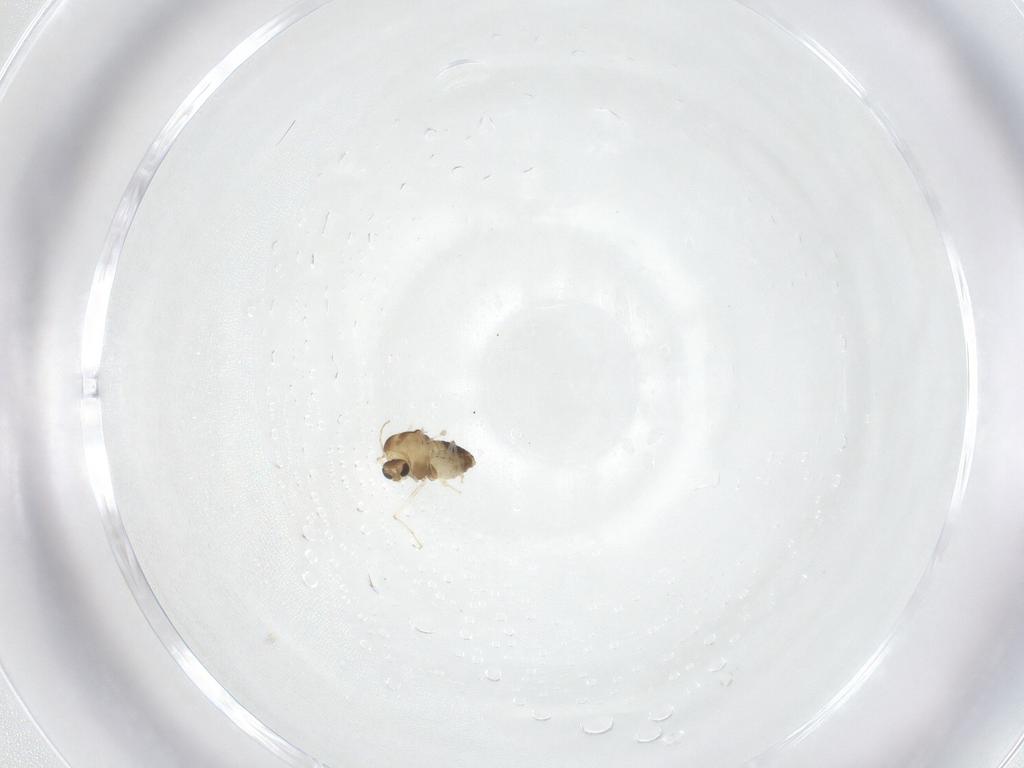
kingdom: Animalia
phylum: Arthropoda
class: Insecta
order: Diptera
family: Chironomidae
